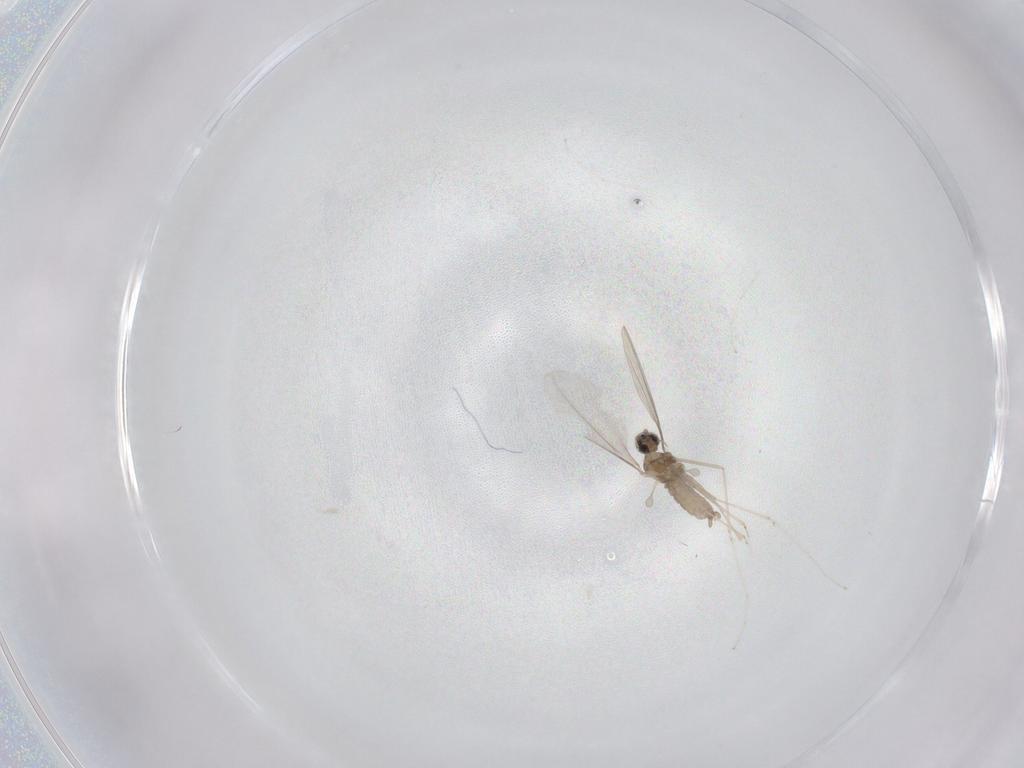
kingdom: Animalia
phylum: Arthropoda
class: Insecta
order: Diptera
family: Cecidomyiidae
